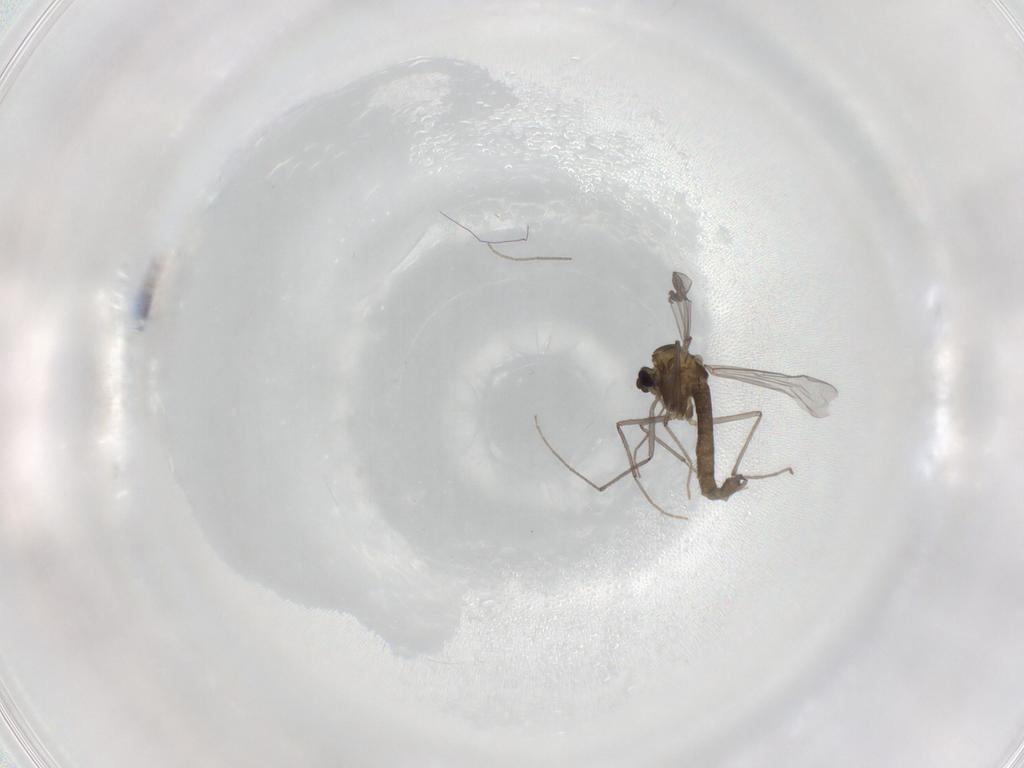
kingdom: Animalia
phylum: Arthropoda
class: Insecta
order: Diptera
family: Chironomidae
